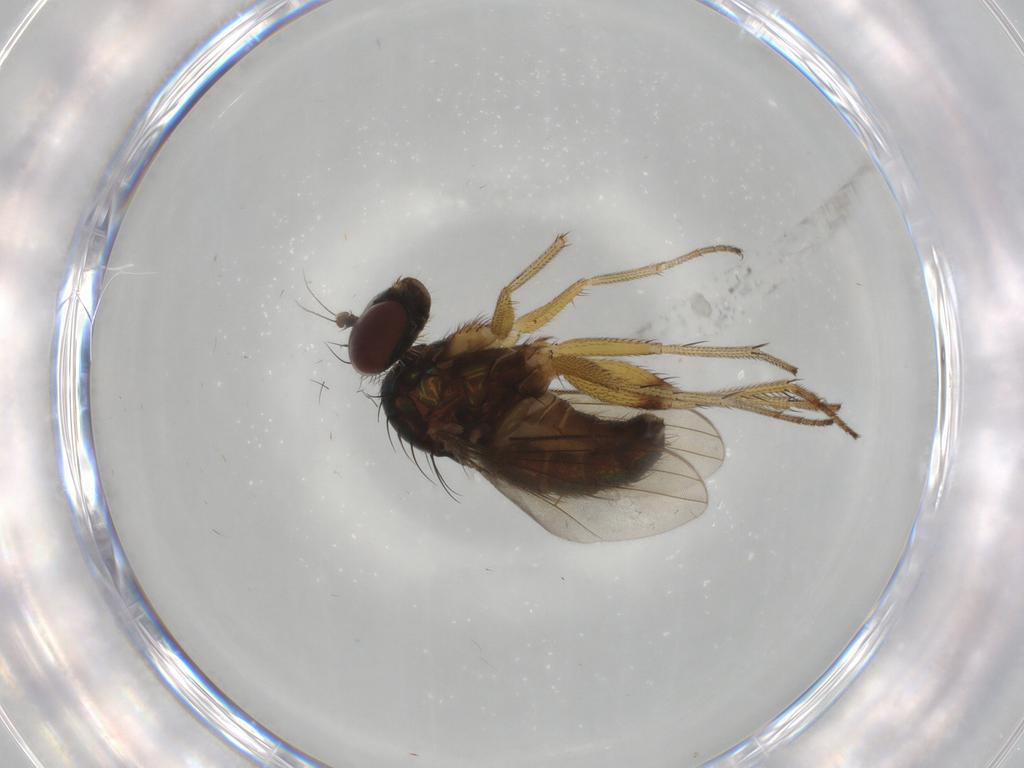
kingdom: Animalia
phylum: Arthropoda
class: Insecta
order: Diptera
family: Dolichopodidae
